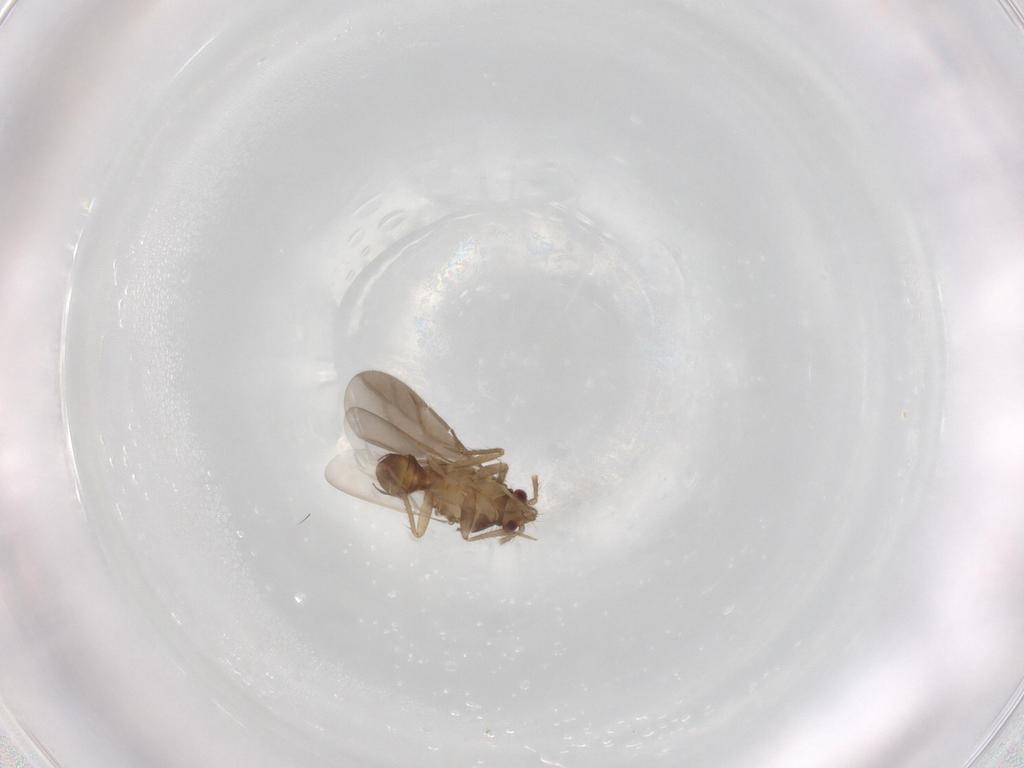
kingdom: Animalia
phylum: Arthropoda
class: Insecta
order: Hemiptera
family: Ceratocombidae
